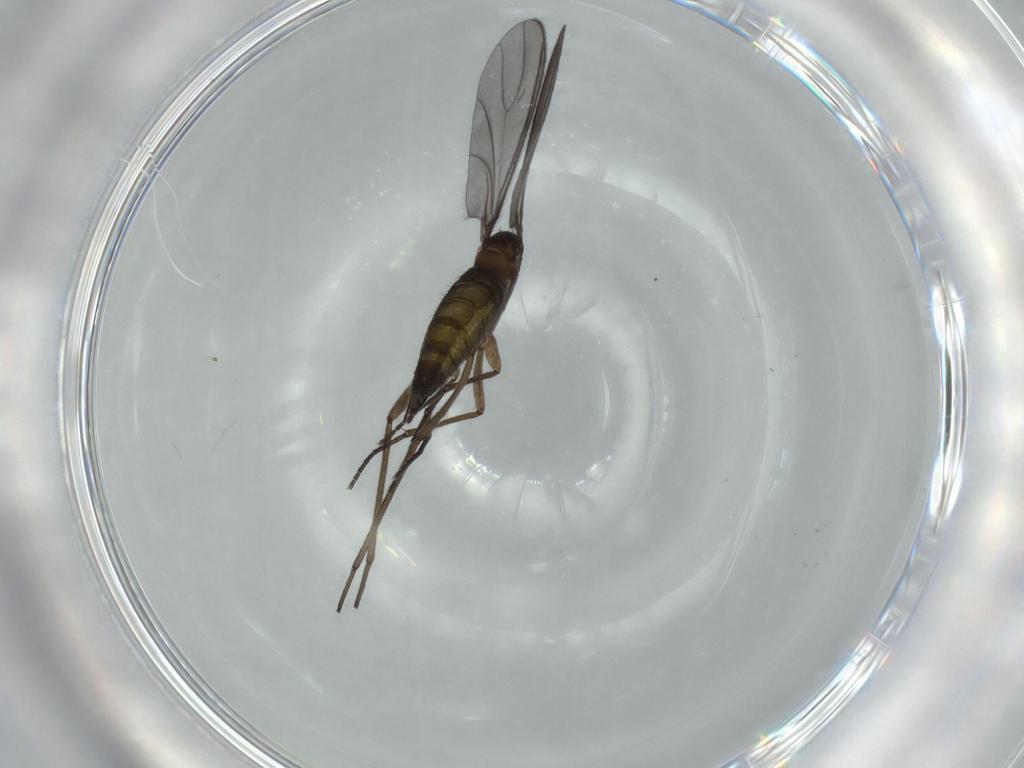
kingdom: Animalia
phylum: Arthropoda
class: Insecta
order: Diptera
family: Sciaridae
